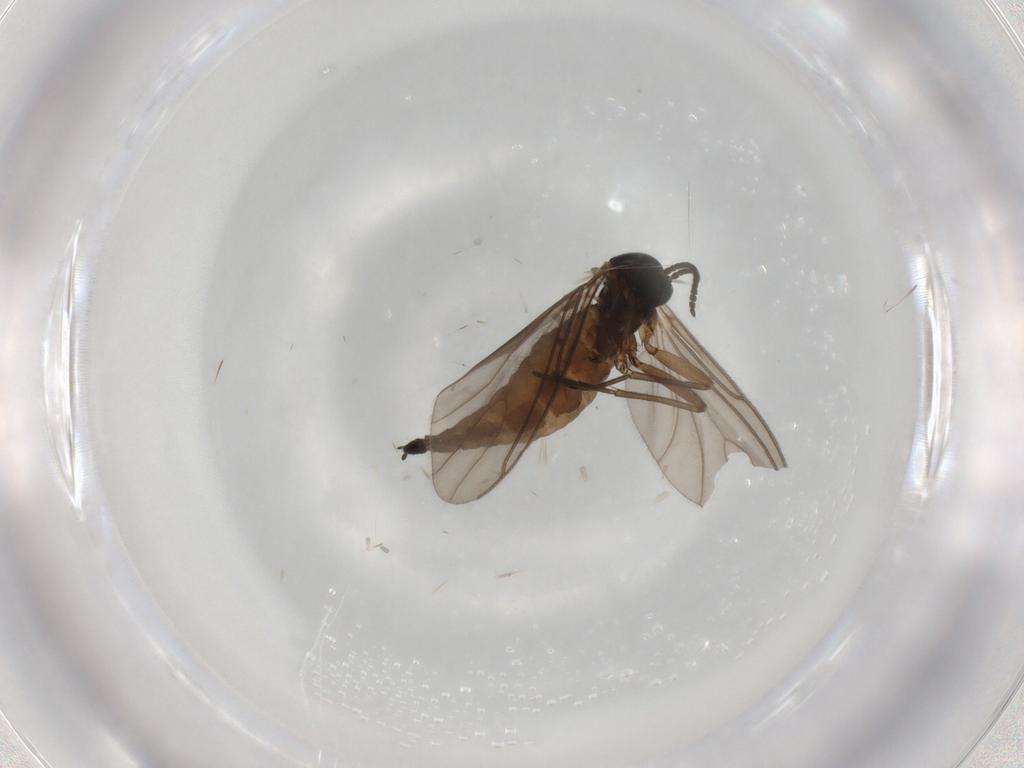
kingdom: Animalia
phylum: Arthropoda
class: Insecta
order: Diptera
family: Sciaridae
